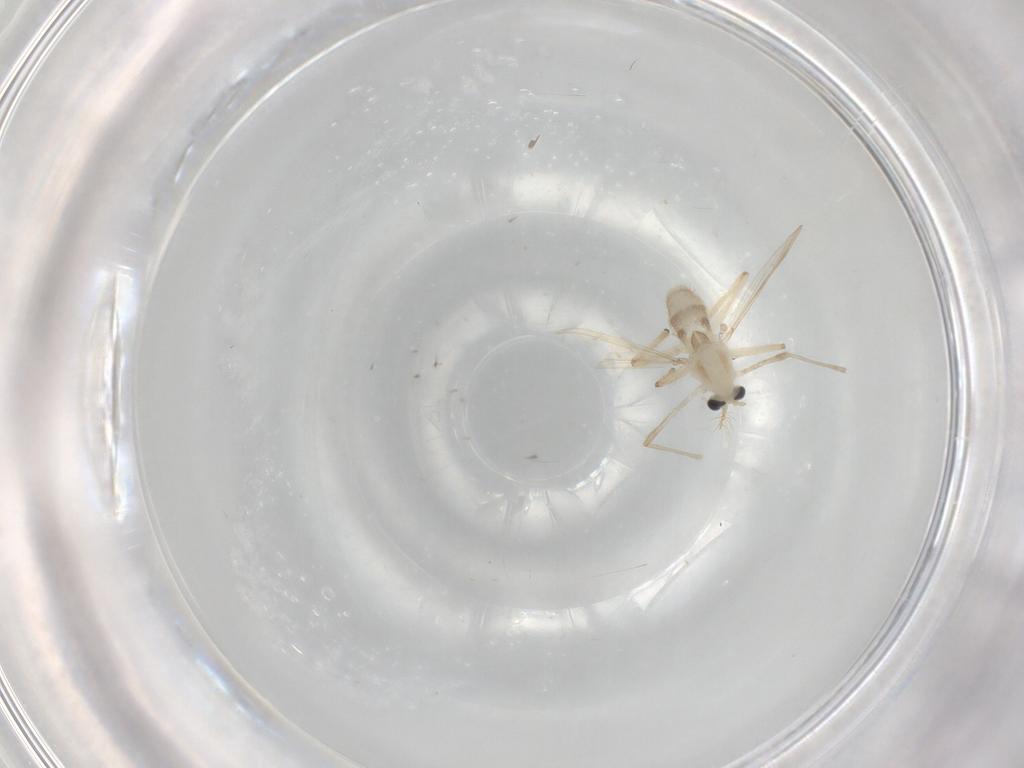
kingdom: Animalia
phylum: Arthropoda
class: Insecta
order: Diptera
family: Chironomidae
